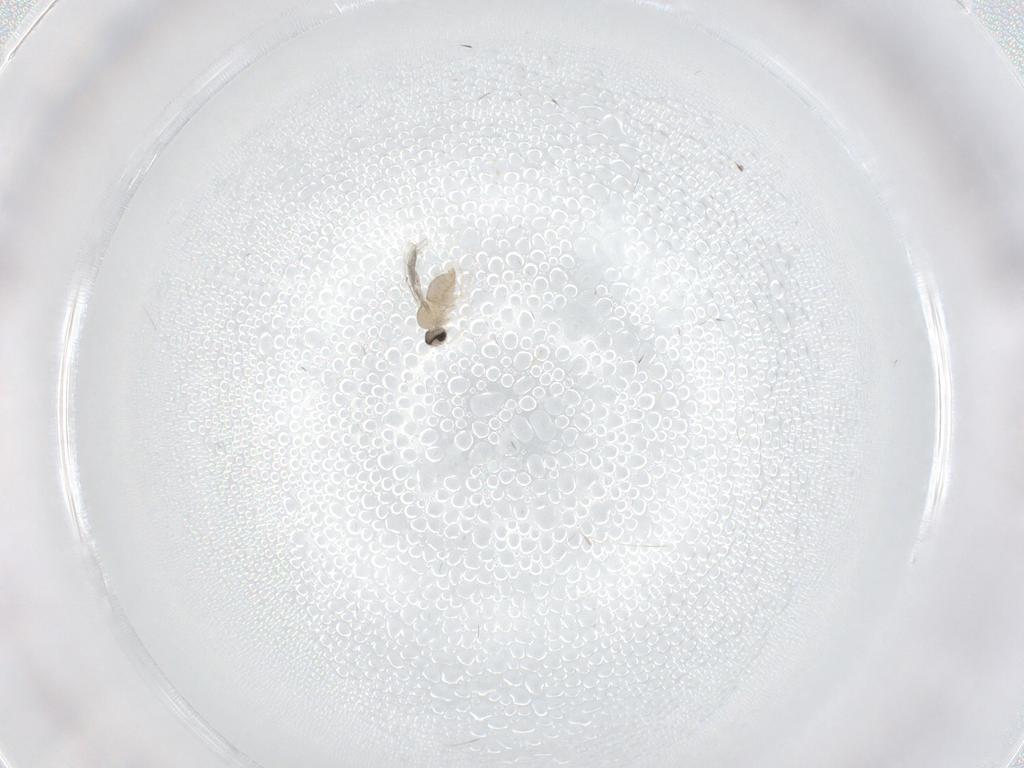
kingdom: Animalia
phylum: Arthropoda
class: Insecta
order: Diptera
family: Cecidomyiidae
